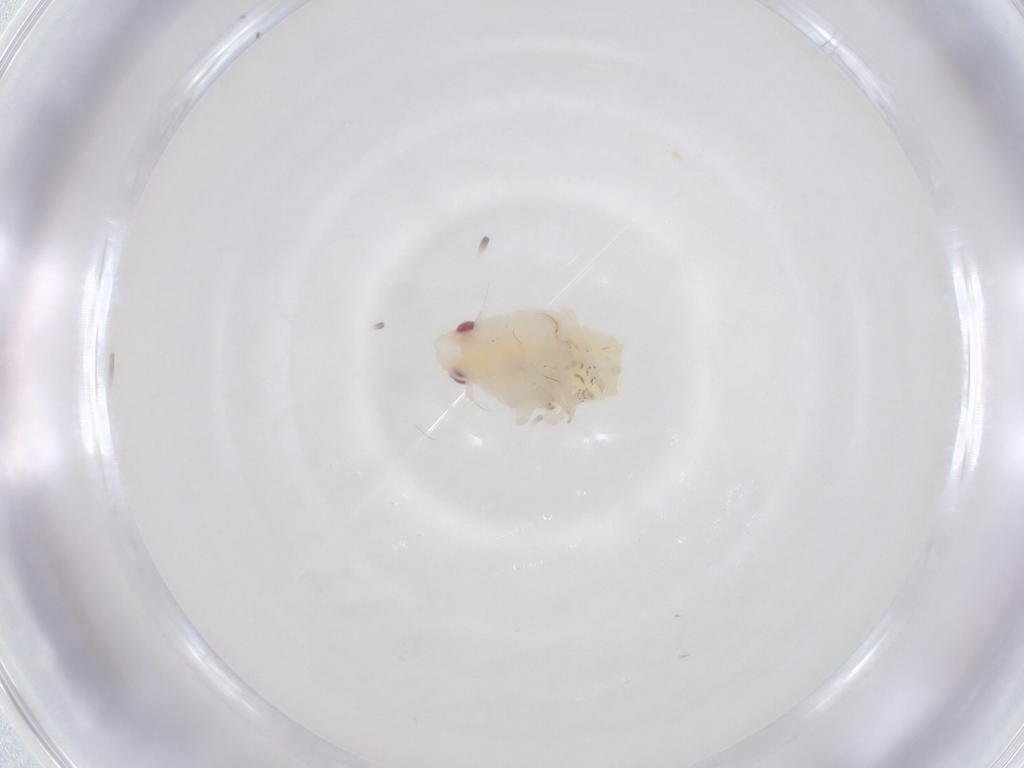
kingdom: Animalia
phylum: Arthropoda
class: Insecta
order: Hemiptera
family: Flatidae
